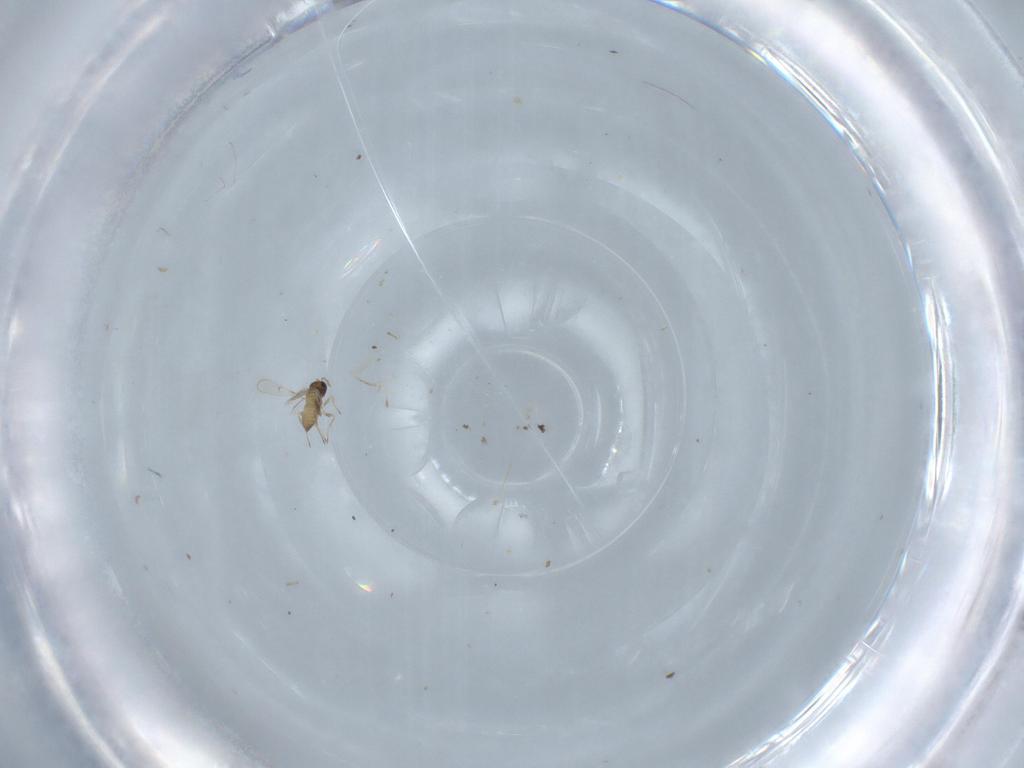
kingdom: Animalia
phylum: Arthropoda
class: Insecta
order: Hymenoptera
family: Trichogrammatidae
